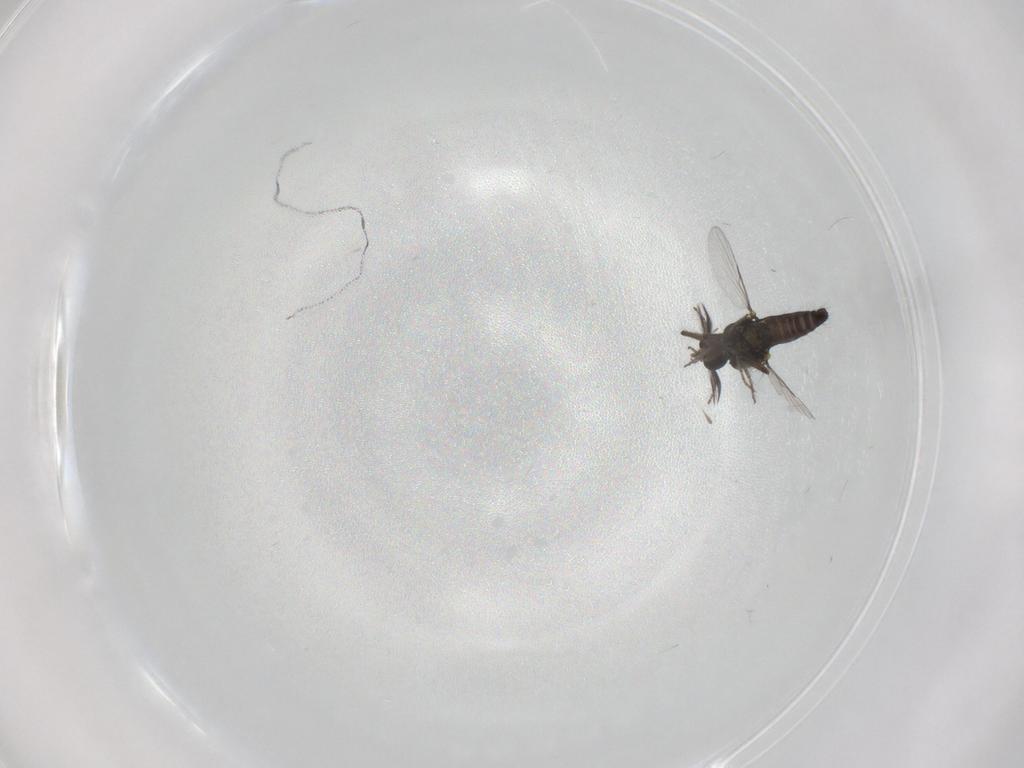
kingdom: Animalia
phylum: Arthropoda
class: Insecta
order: Diptera
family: Ceratopogonidae
